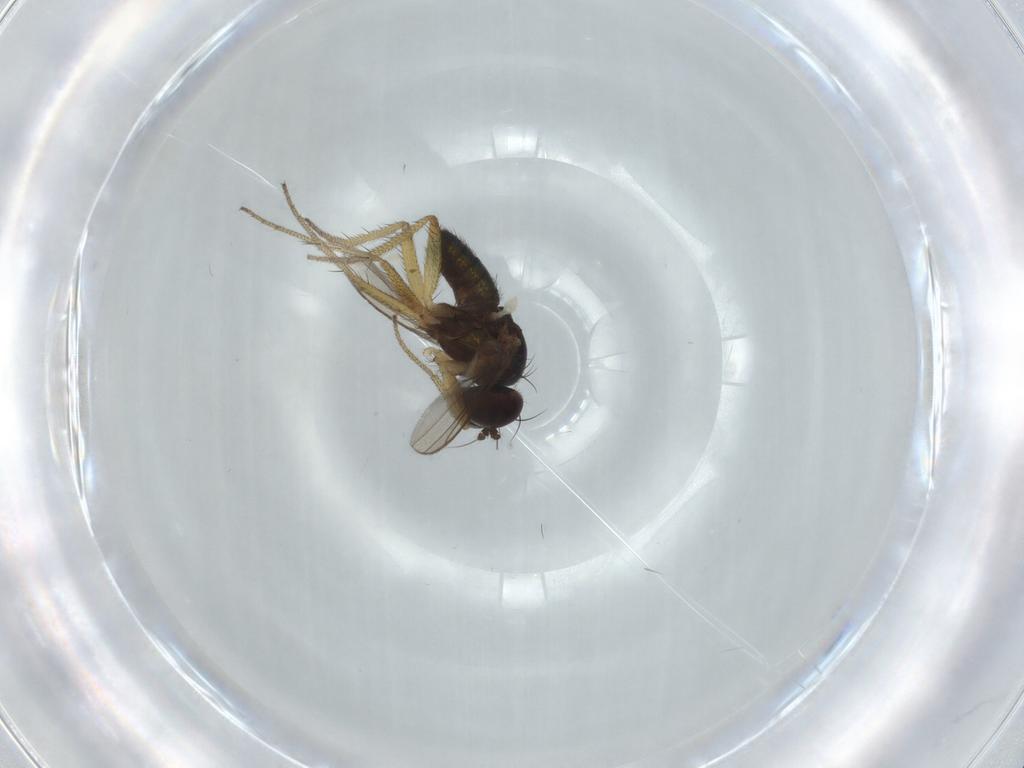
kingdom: Animalia
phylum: Arthropoda
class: Insecta
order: Diptera
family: Dolichopodidae
